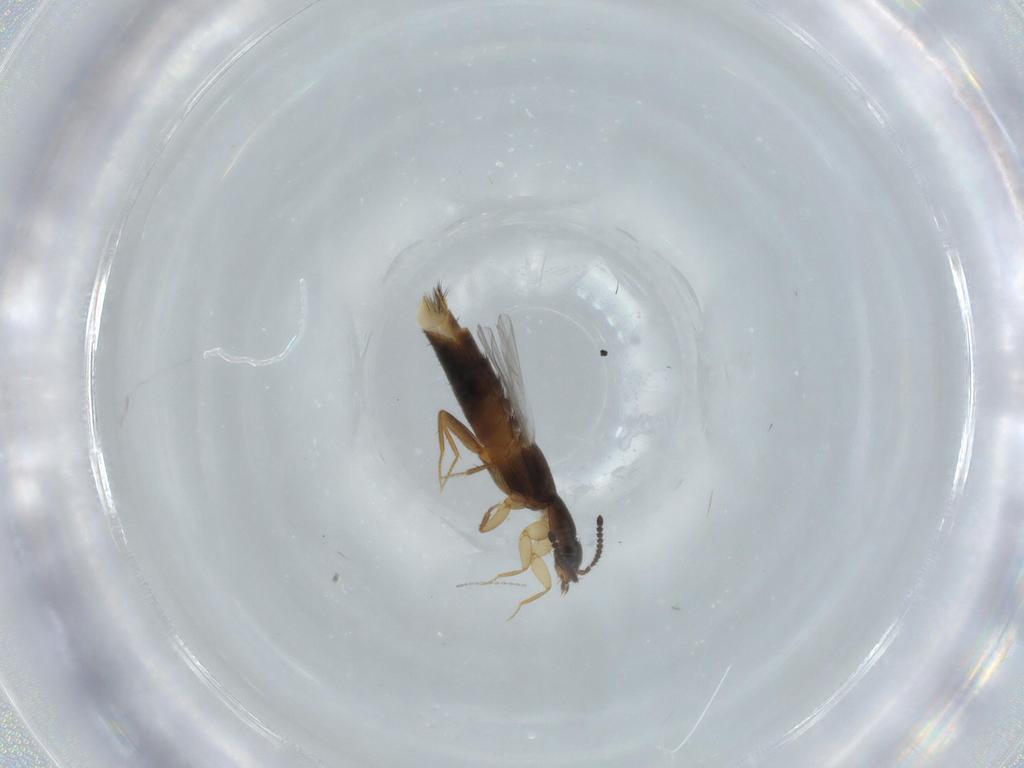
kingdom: Animalia
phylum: Arthropoda
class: Insecta
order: Coleoptera
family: Staphylinidae
